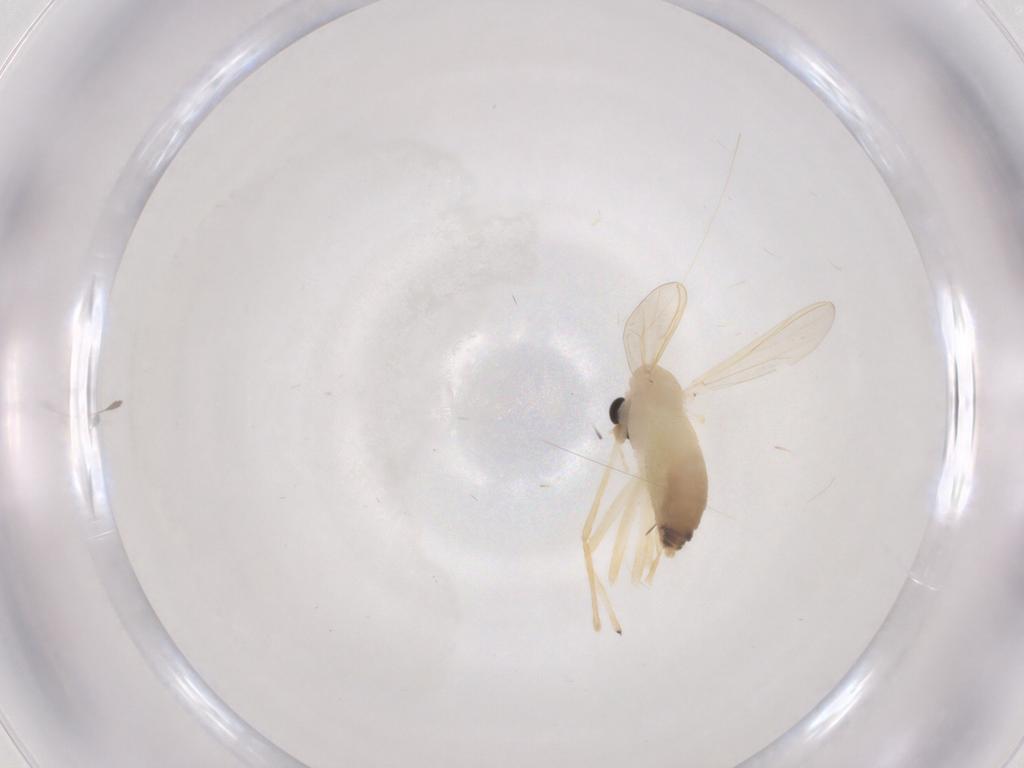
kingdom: Animalia
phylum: Arthropoda
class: Insecta
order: Diptera
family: Chironomidae
